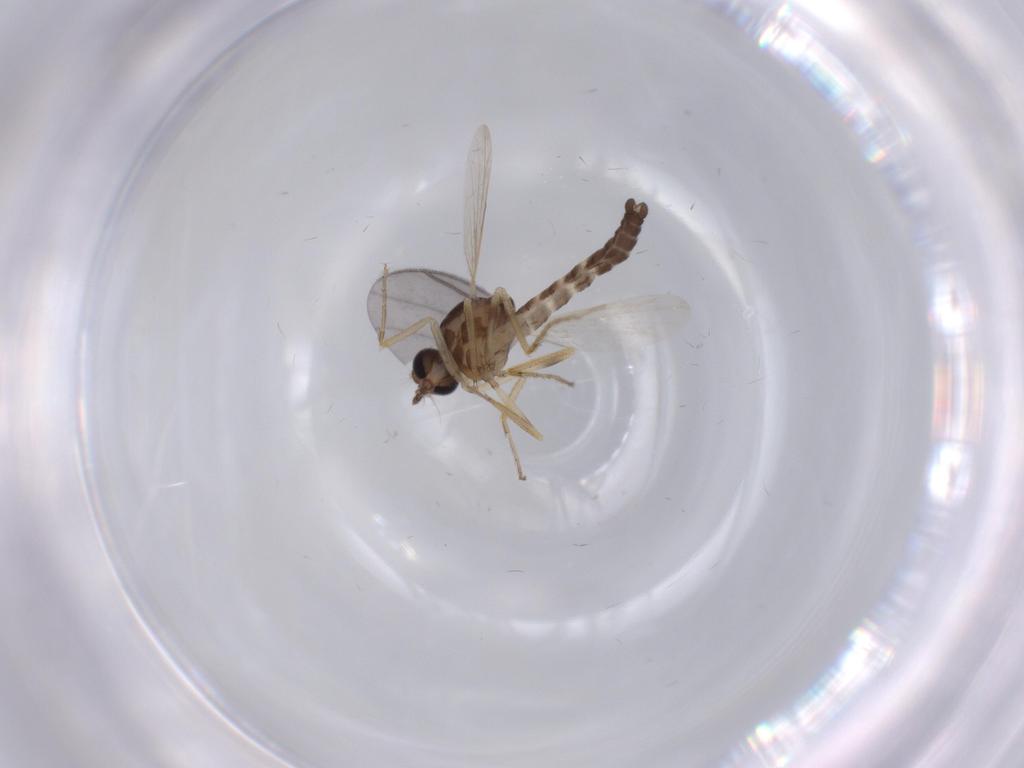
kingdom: Animalia
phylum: Arthropoda
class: Insecta
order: Diptera
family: Ceratopogonidae
